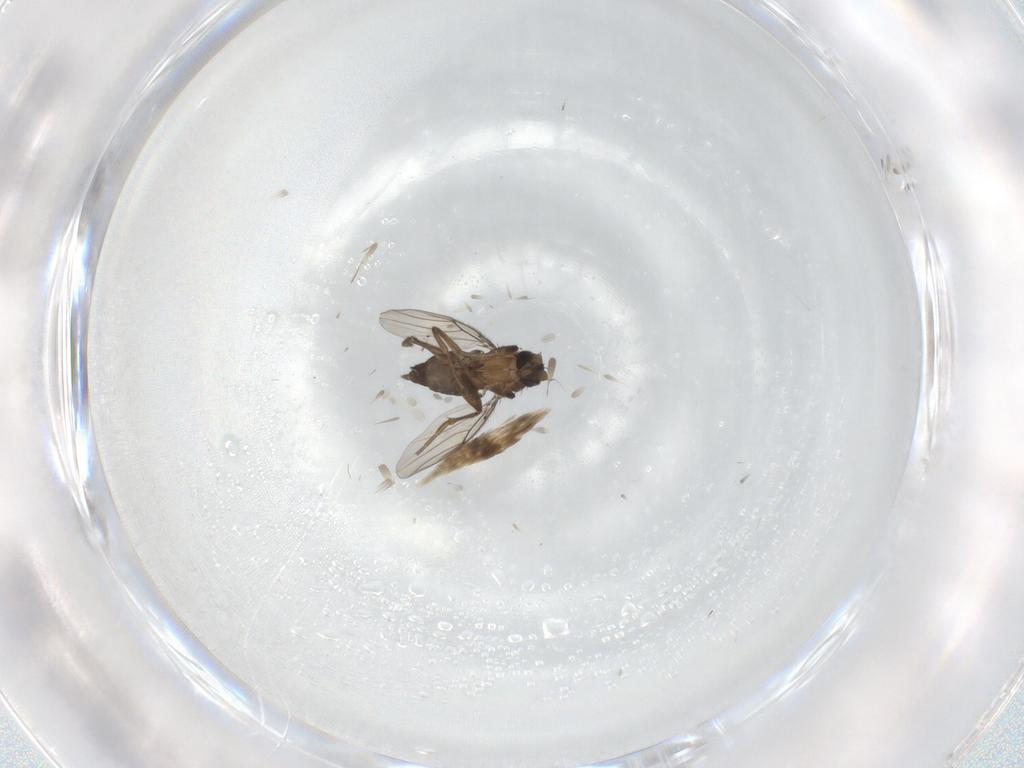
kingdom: Animalia
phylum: Arthropoda
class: Insecta
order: Diptera
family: Phoridae
